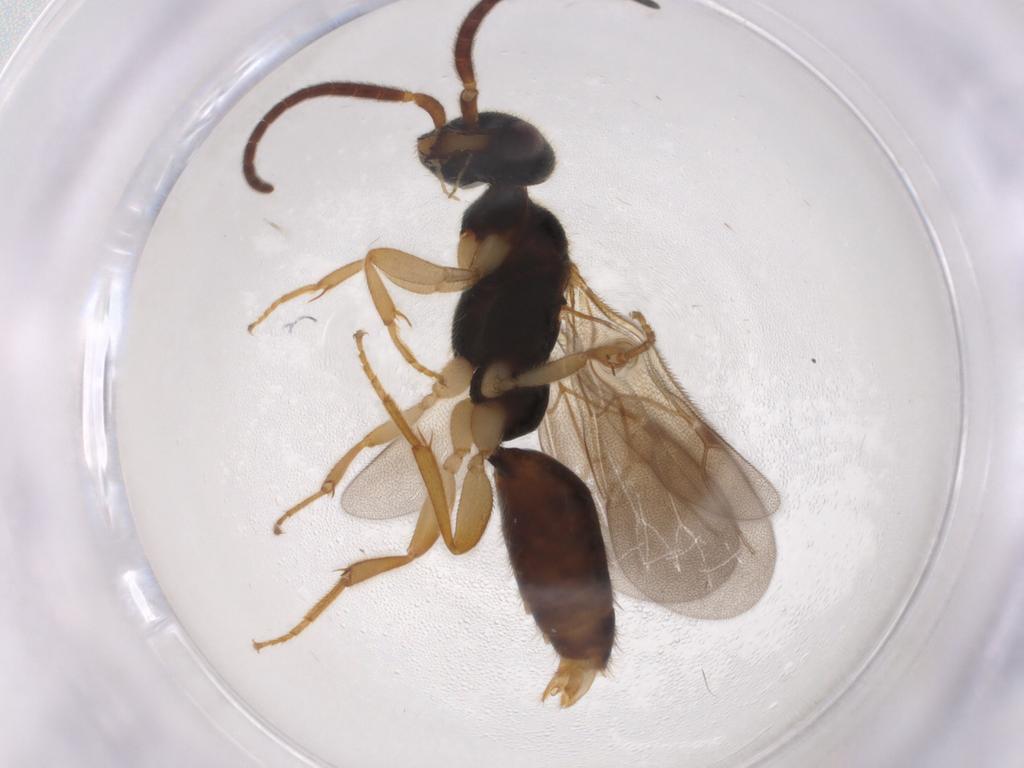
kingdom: Animalia
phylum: Arthropoda
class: Insecta
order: Hymenoptera
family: Bethylidae
